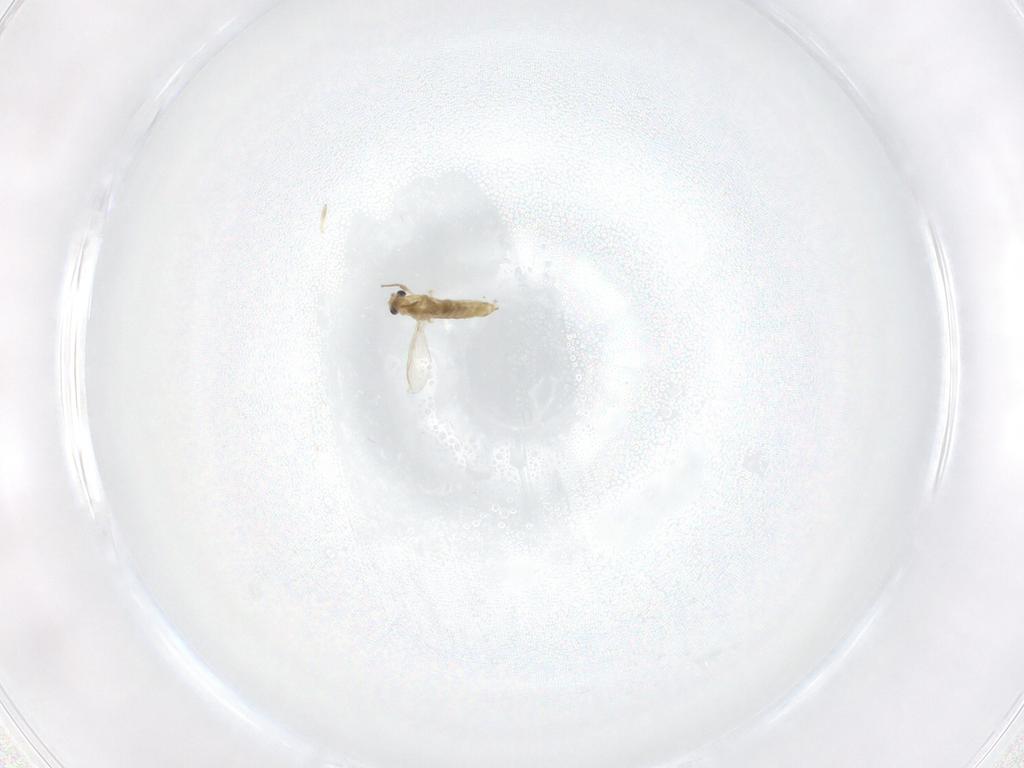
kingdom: Animalia
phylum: Arthropoda
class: Insecta
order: Diptera
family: Chironomidae
